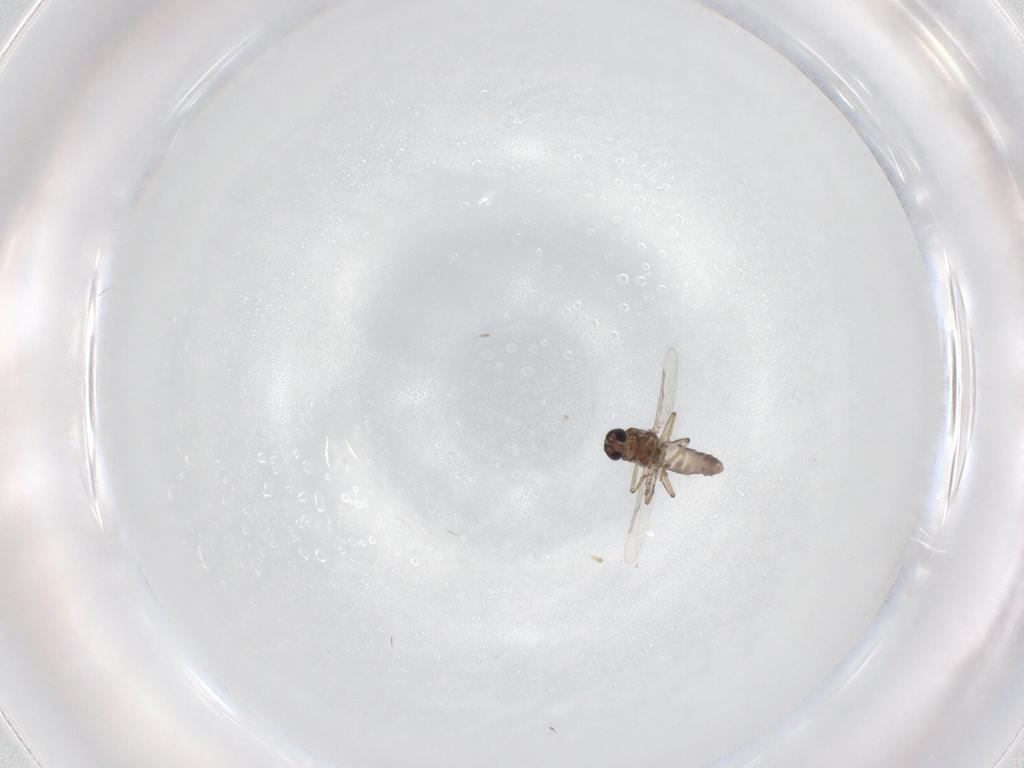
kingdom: Animalia
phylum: Arthropoda
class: Insecta
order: Diptera
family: Ceratopogonidae
